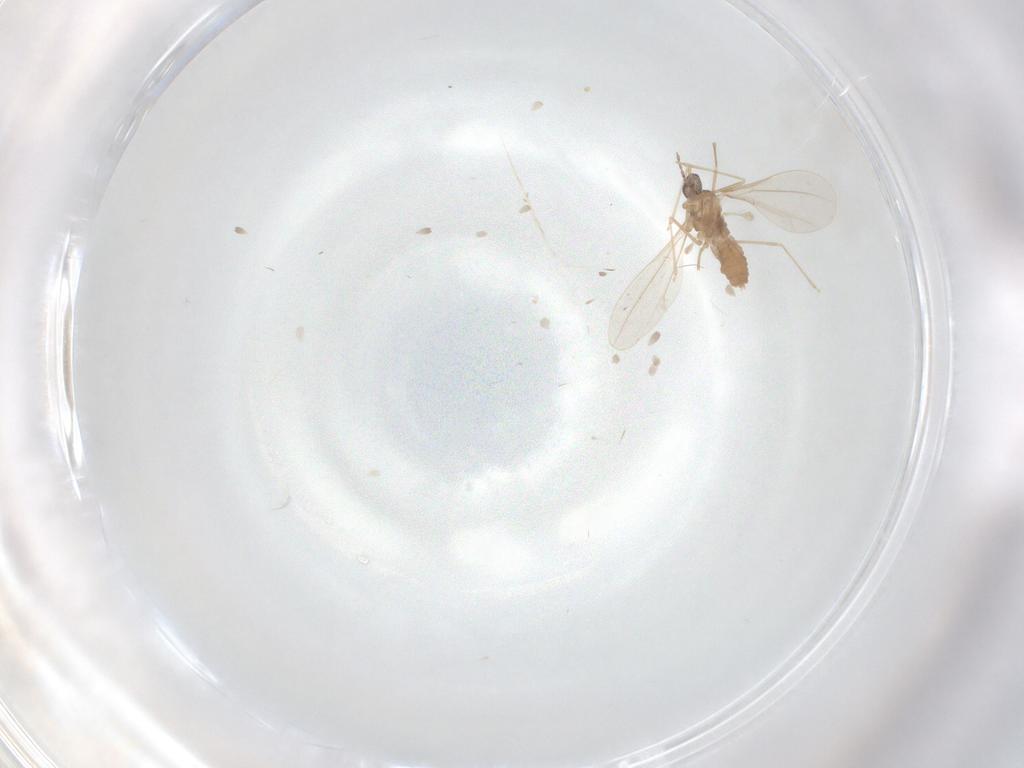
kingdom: Animalia
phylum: Arthropoda
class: Insecta
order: Diptera
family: Cecidomyiidae
